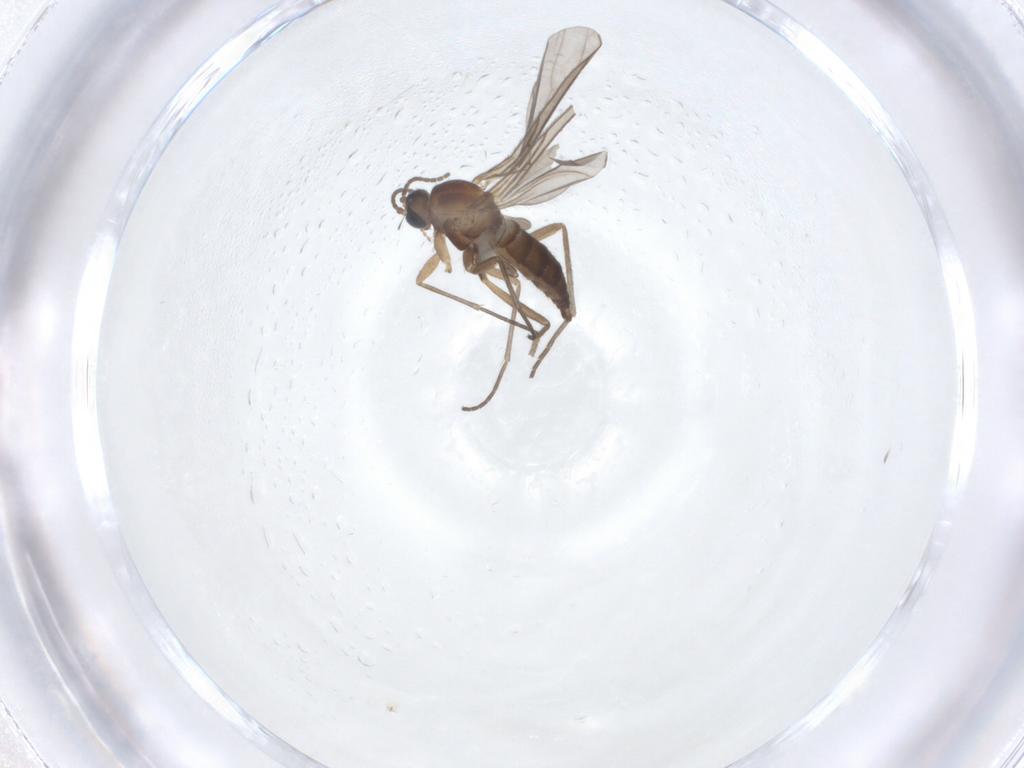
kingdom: Animalia
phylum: Arthropoda
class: Insecta
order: Diptera
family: Sciaridae
